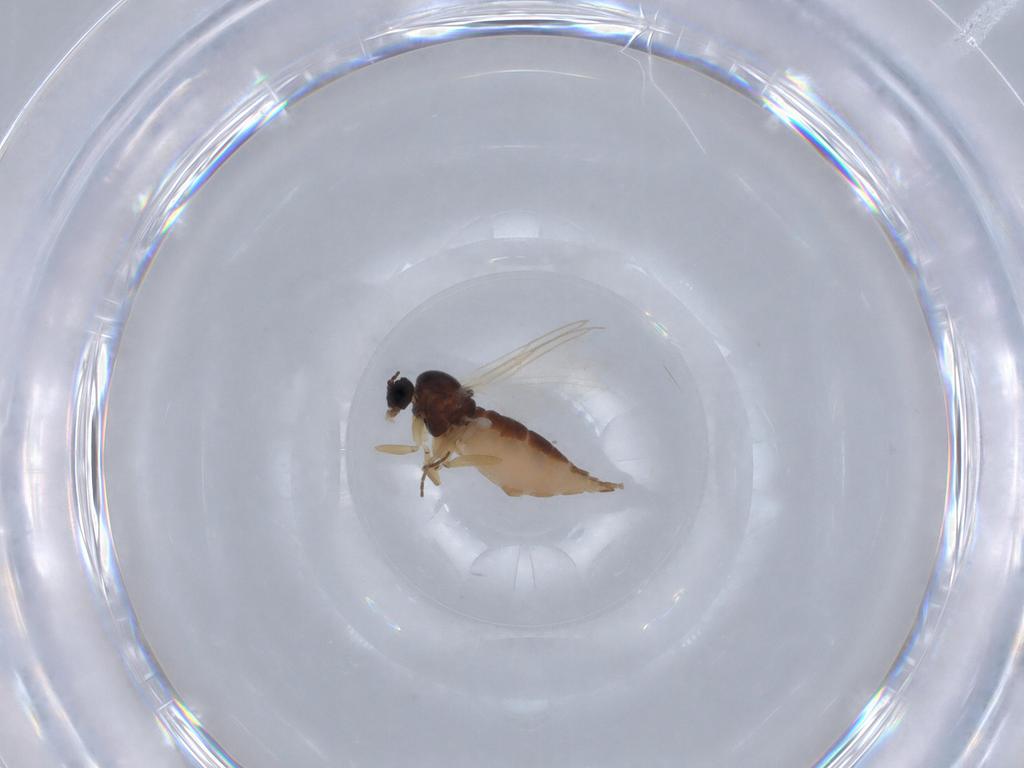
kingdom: Animalia
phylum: Arthropoda
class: Insecta
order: Diptera
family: Sciaridae
